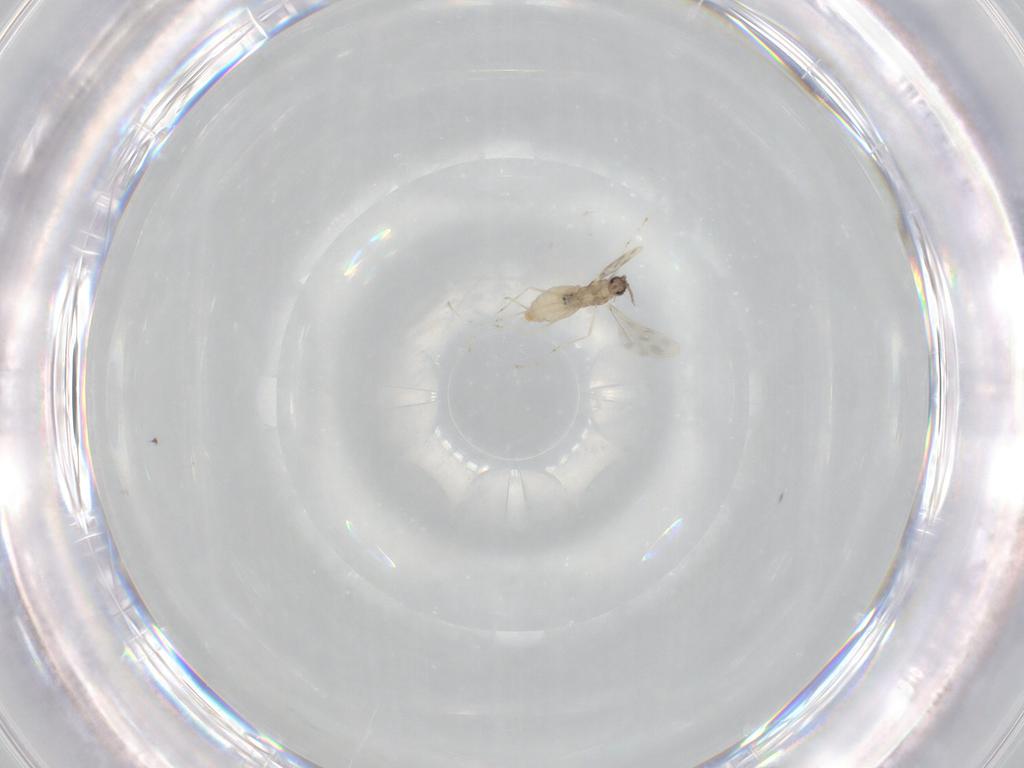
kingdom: Animalia
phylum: Arthropoda
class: Insecta
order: Diptera
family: Cecidomyiidae
